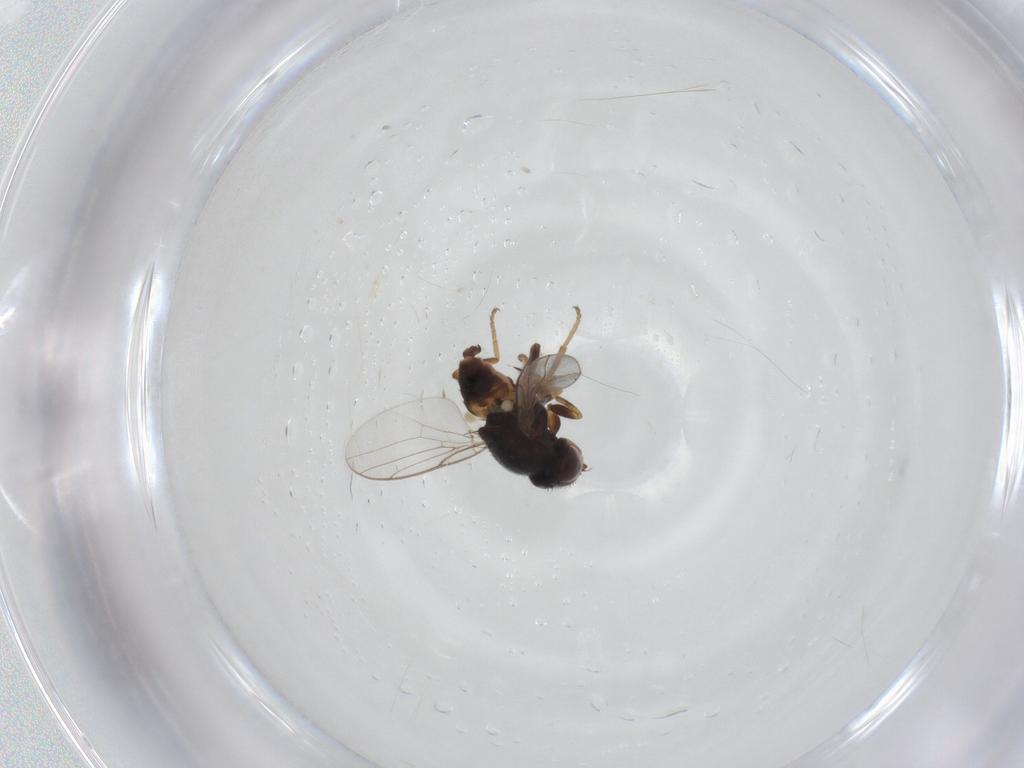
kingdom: Animalia
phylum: Arthropoda
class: Insecta
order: Diptera
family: Chloropidae
